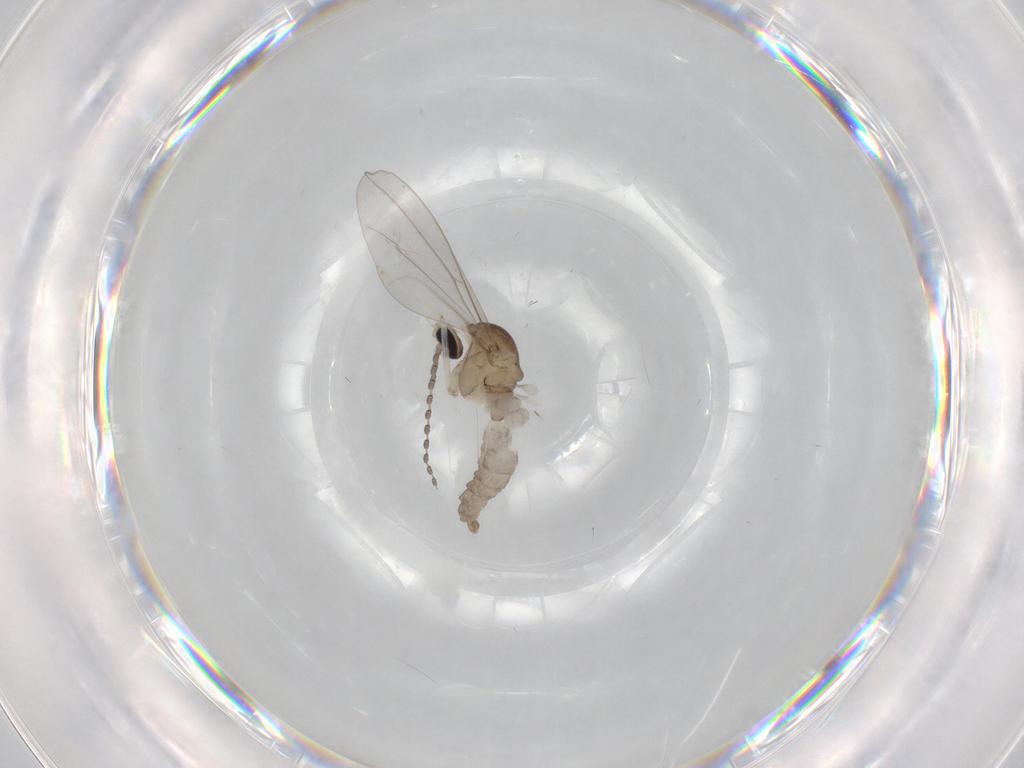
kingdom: Animalia
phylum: Arthropoda
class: Insecta
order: Diptera
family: Cecidomyiidae
